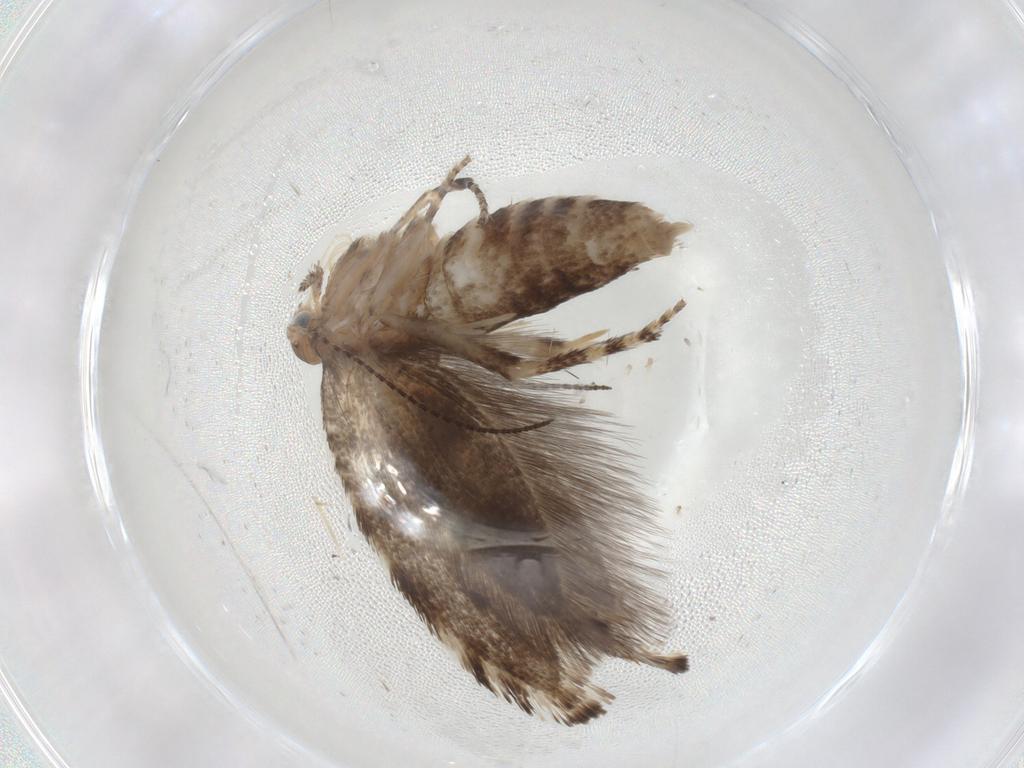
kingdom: Animalia
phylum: Arthropoda
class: Insecta
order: Lepidoptera
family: Glyphipterigidae
